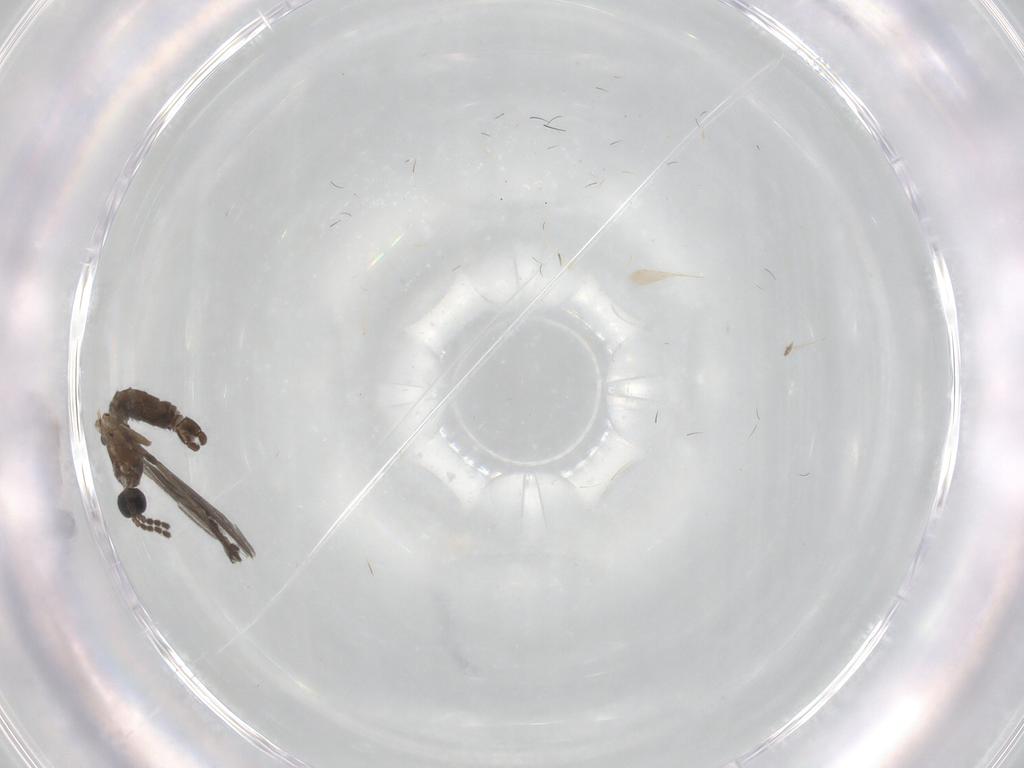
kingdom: Animalia
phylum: Arthropoda
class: Insecta
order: Diptera
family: Sciaridae
